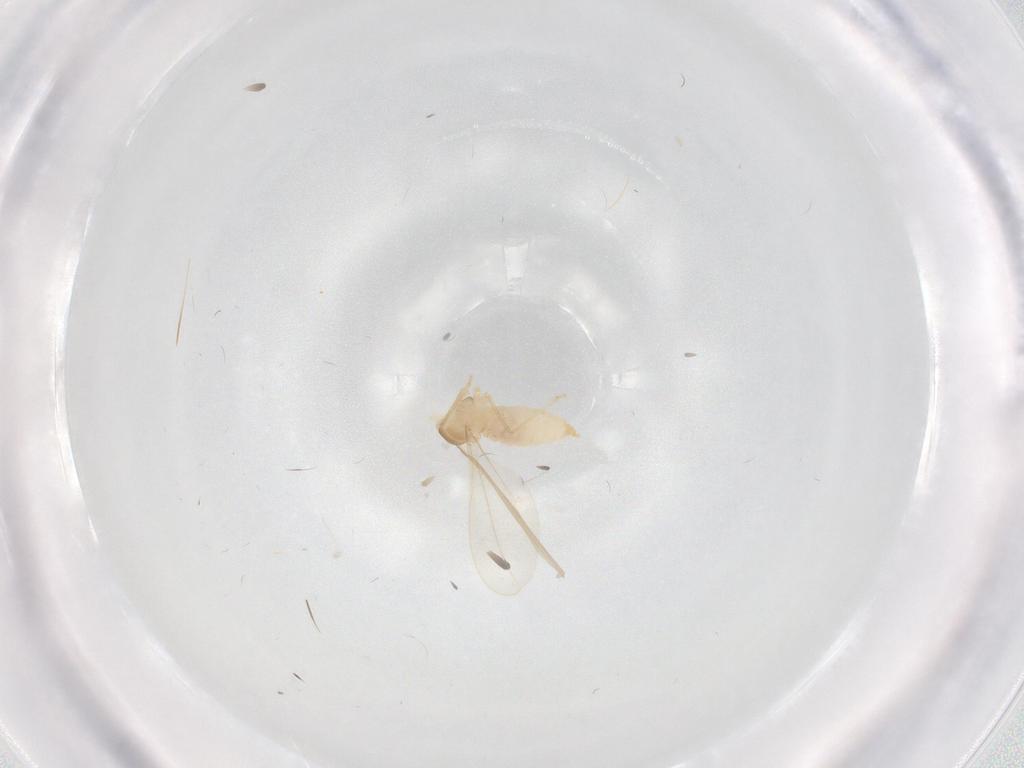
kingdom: Animalia
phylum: Arthropoda
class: Insecta
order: Diptera
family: Cecidomyiidae
